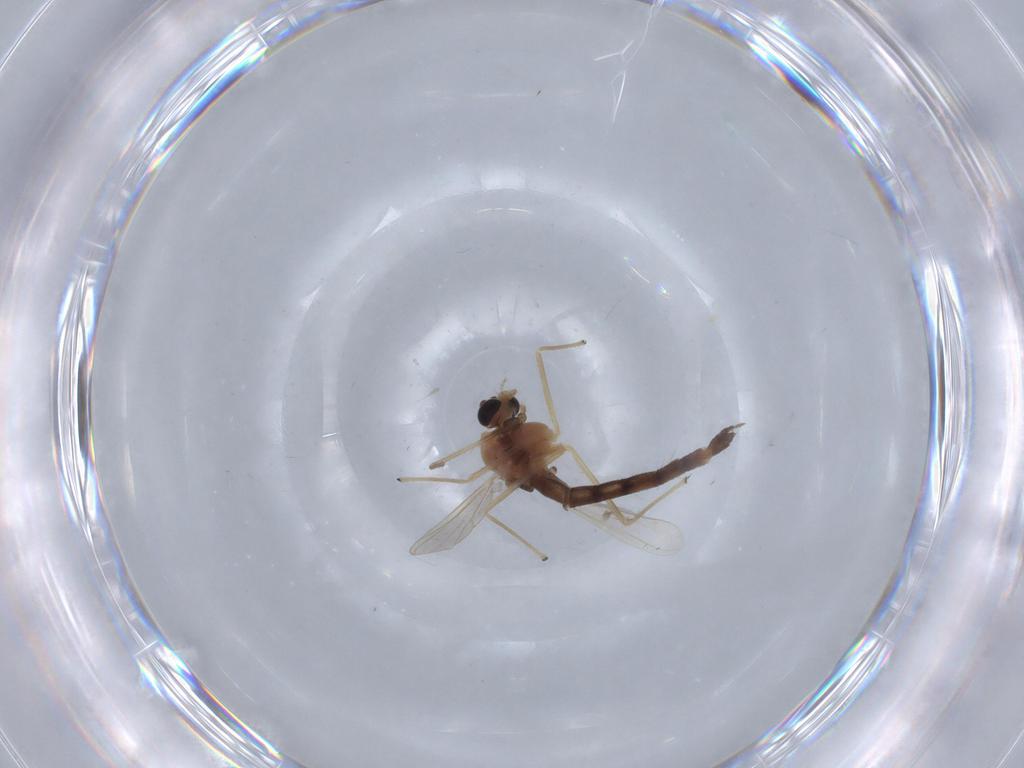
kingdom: Animalia
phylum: Arthropoda
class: Insecta
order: Diptera
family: Chironomidae
